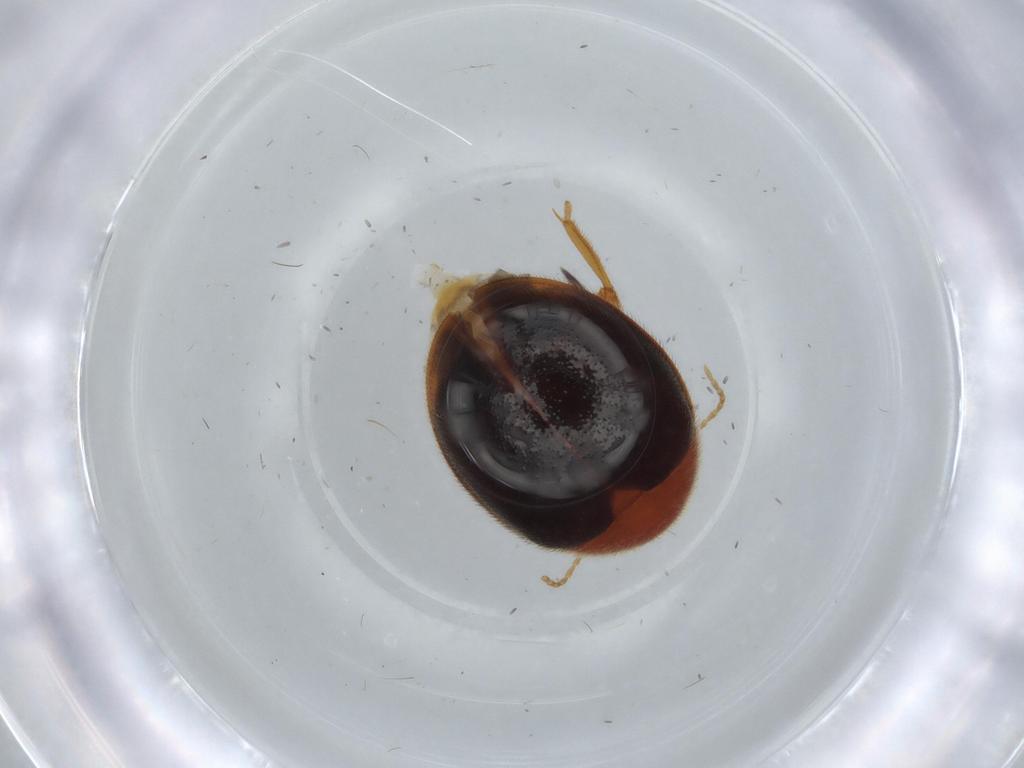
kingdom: Animalia
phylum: Arthropoda
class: Insecta
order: Coleoptera
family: Scirtidae
